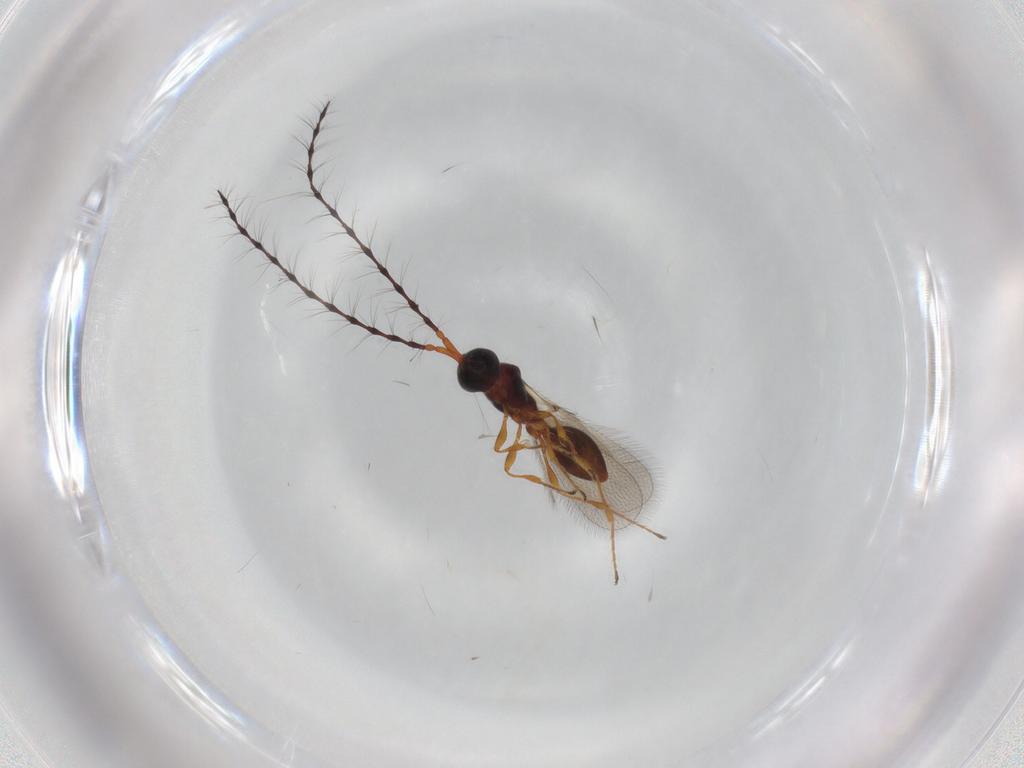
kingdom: Animalia
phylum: Arthropoda
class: Insecta
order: Hymenoptera
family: Diapriidae
